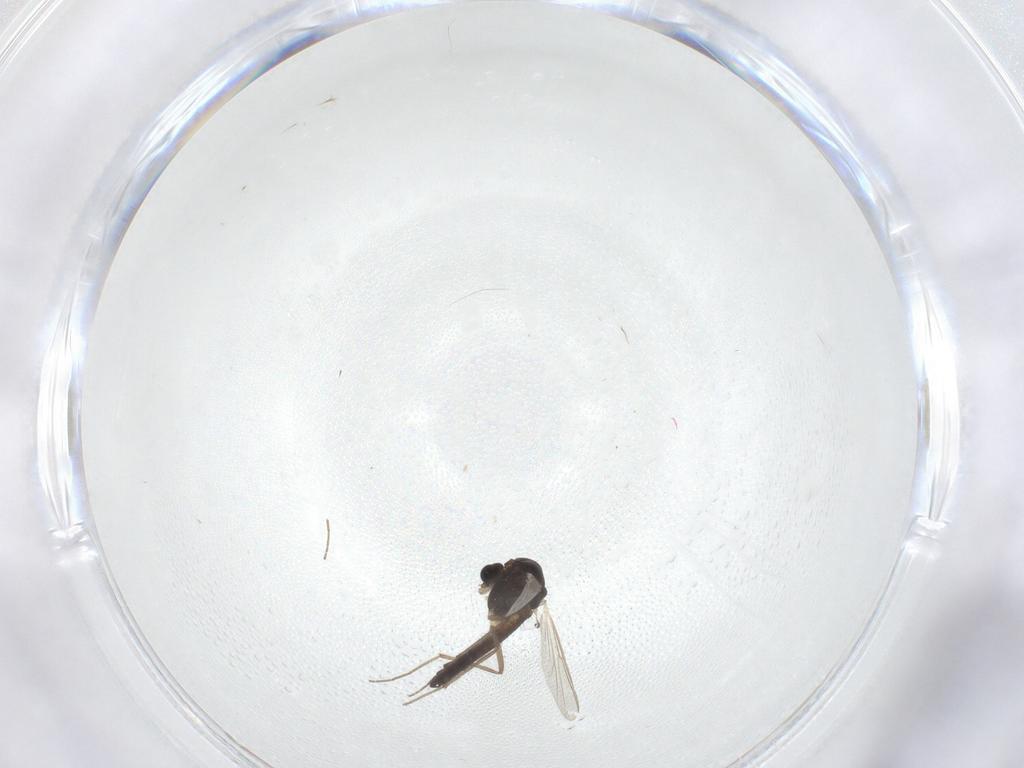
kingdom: Animalia
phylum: Arthropoda
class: Insecta
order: Diptera
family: Chironomidae
